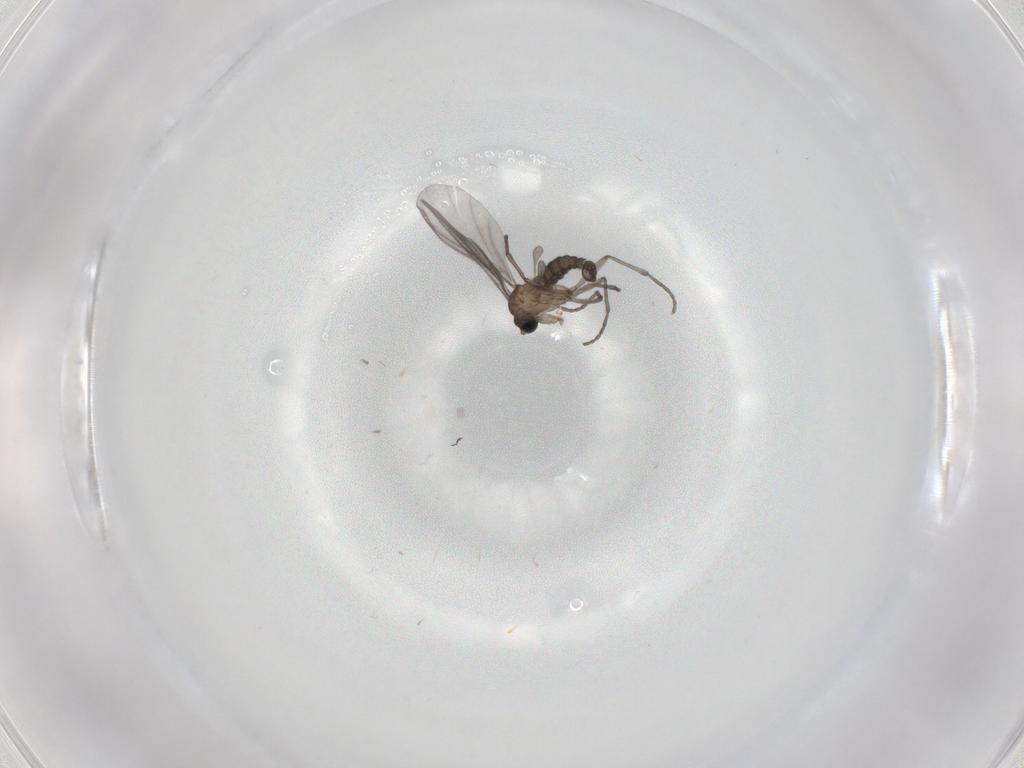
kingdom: Animalia
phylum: Arthropoda
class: Insecta
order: Diptera
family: Sciaridae
